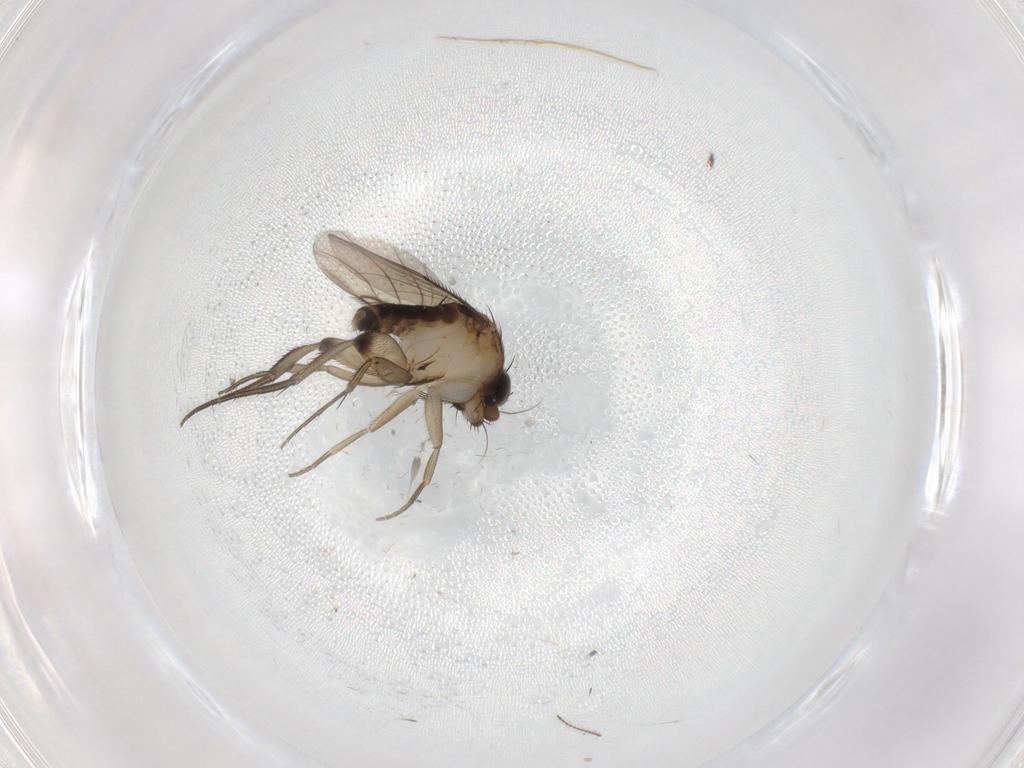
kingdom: Animalia
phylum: Arthropoda
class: Insecta
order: Diptera
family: Phoridae
